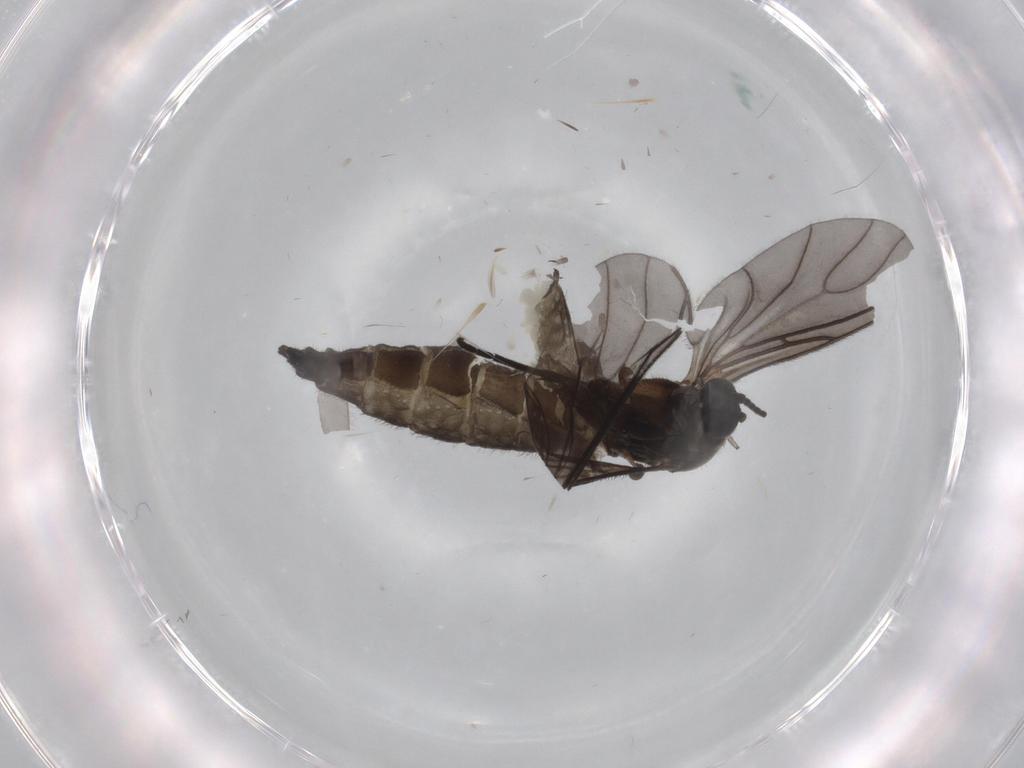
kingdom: Animalia
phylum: Arthropoda
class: Insecta
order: Diptera
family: Sciaridae
